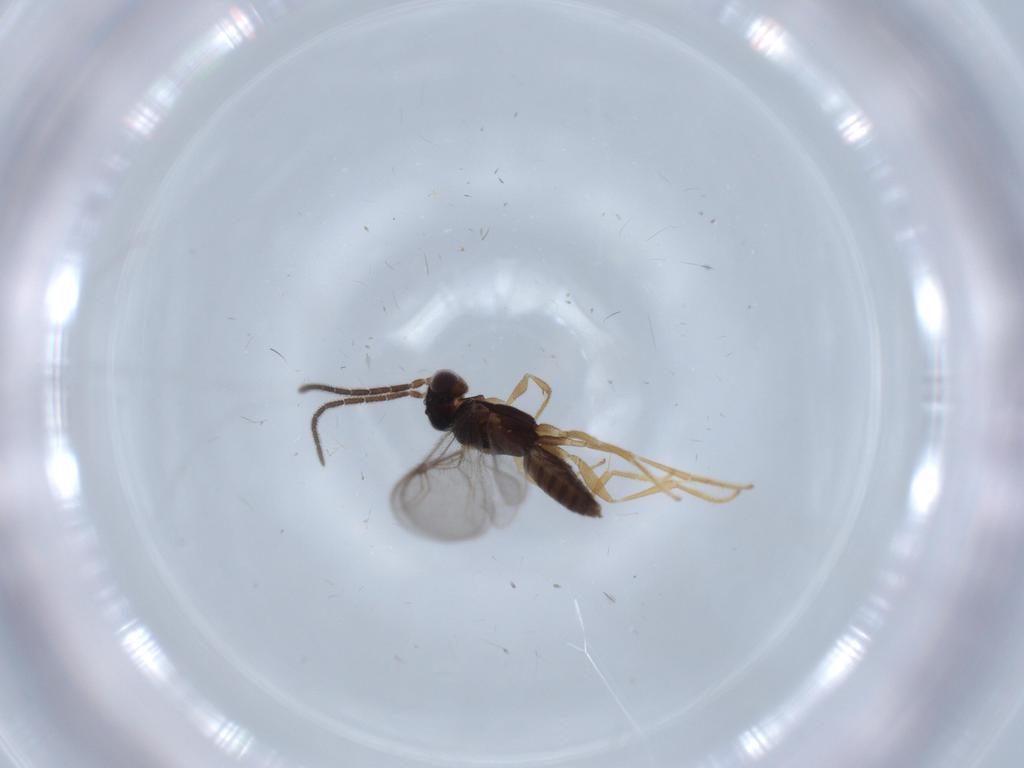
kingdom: Animalia
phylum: Arthropoda
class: Insecta
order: Hymenoptera
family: Dryinidae
